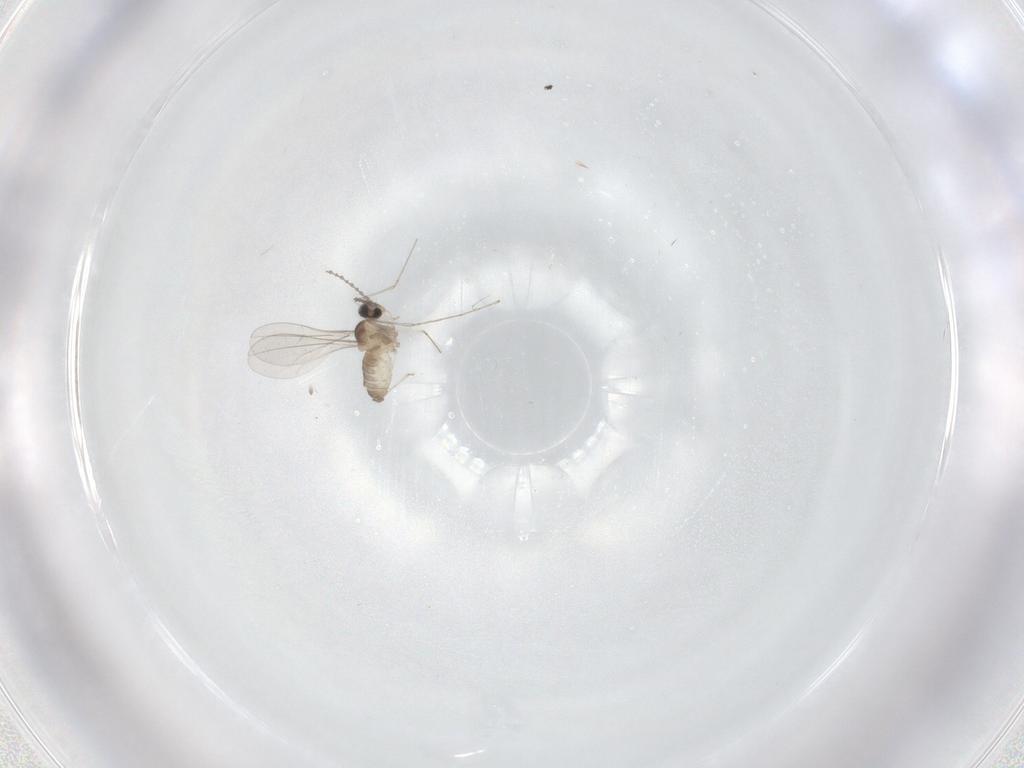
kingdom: Animalia
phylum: Arthropoda
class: Insecta
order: Diptera
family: Cecidomyiidae
